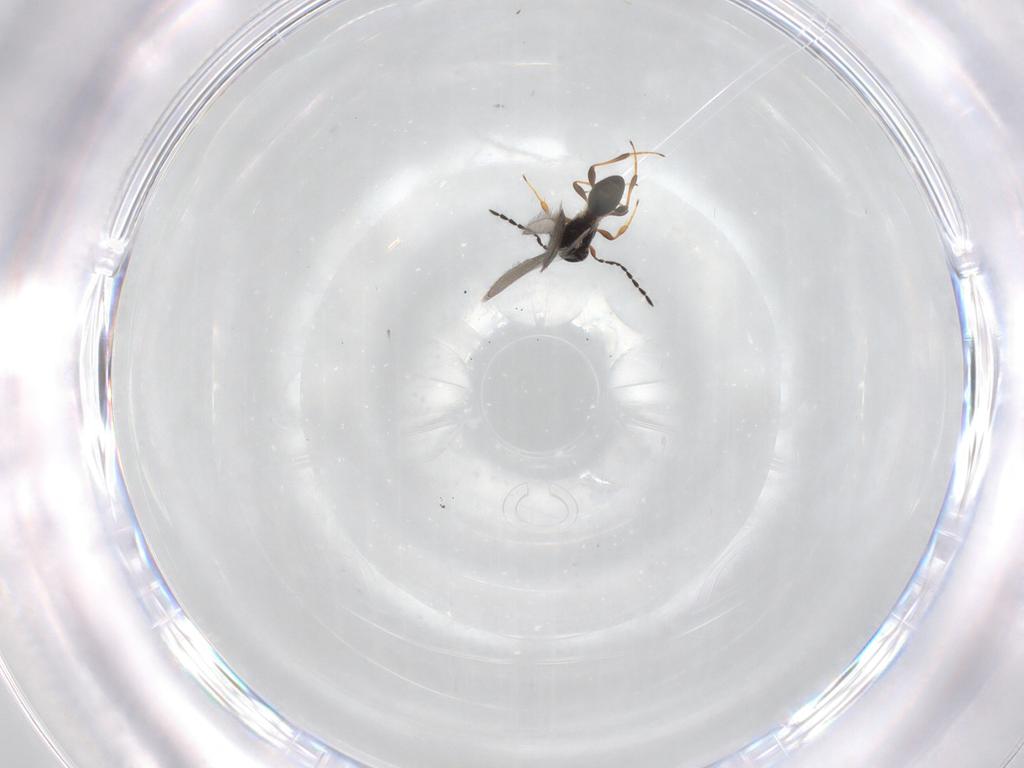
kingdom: Animalia
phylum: Arthropoda
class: Insecta
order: Hymenoptera
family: Platygastridae
